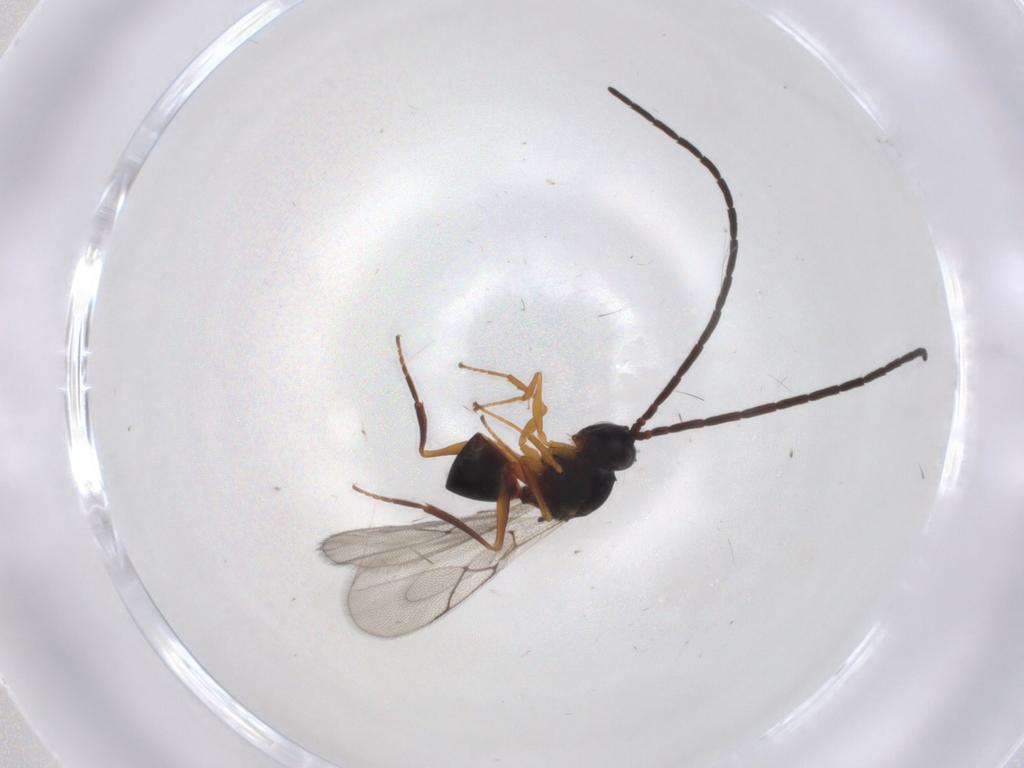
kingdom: Animalia
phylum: Arthropoda
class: Insecta
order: Hymenoptera
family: Figitidae
